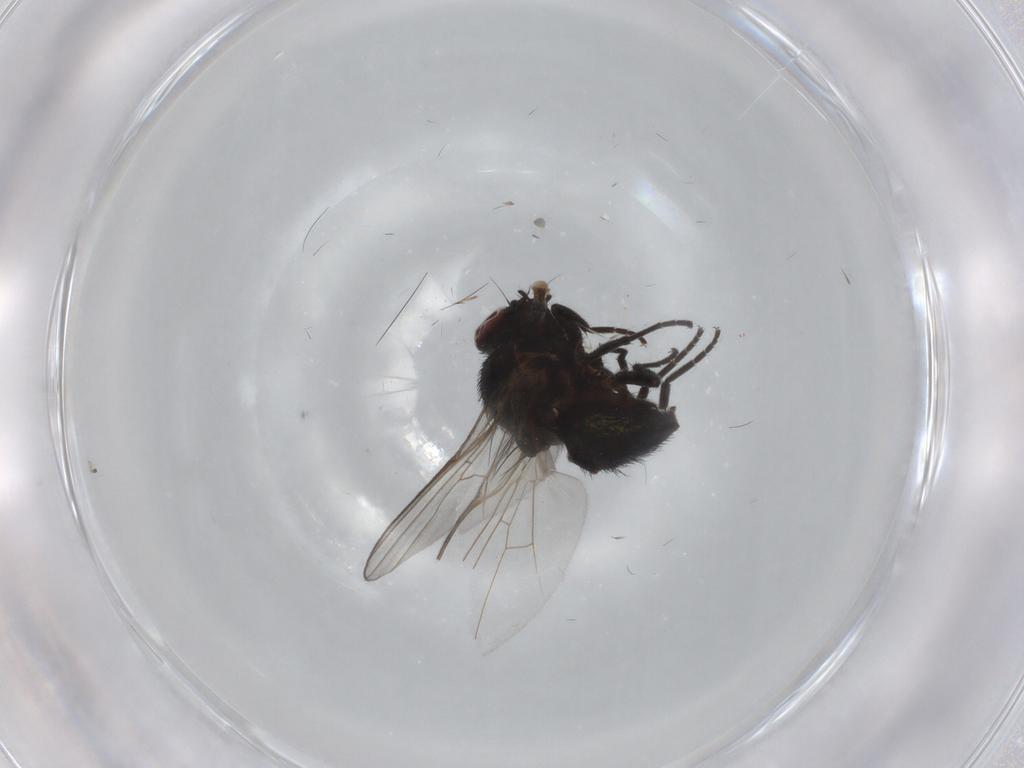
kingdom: Animalia
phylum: Arthropoda
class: Insecta
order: Diptera
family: Agromyzidae
